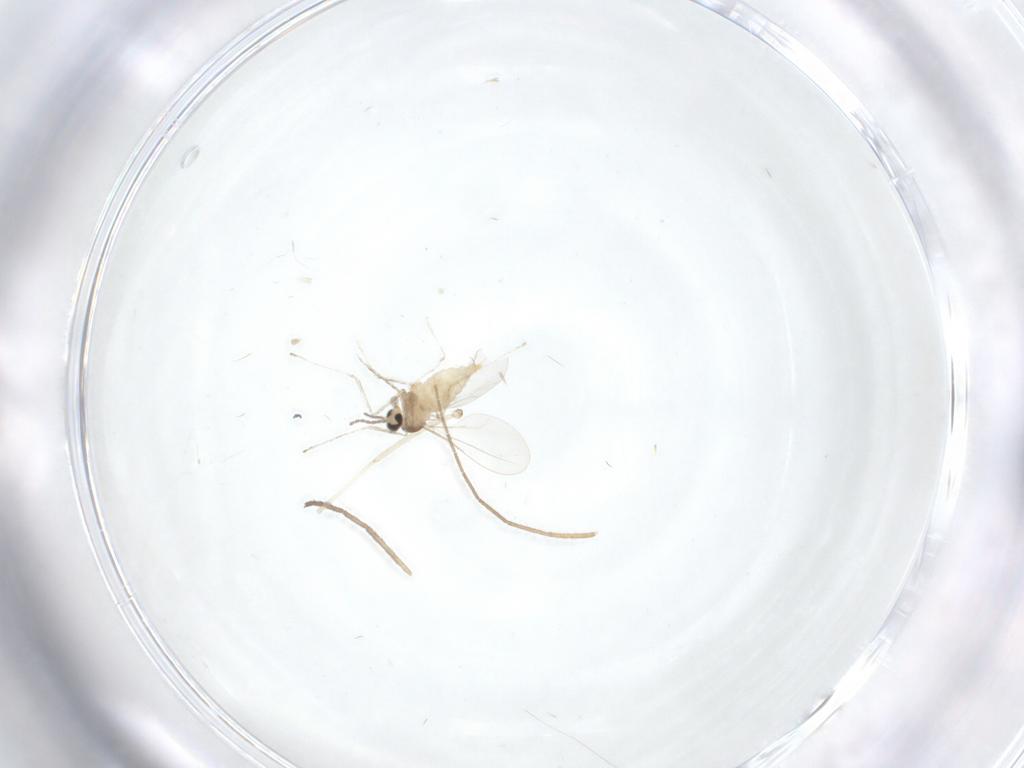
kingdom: Animalia
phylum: Arthropoda
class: Insecta
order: Diptera
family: Cecidomyiidae
